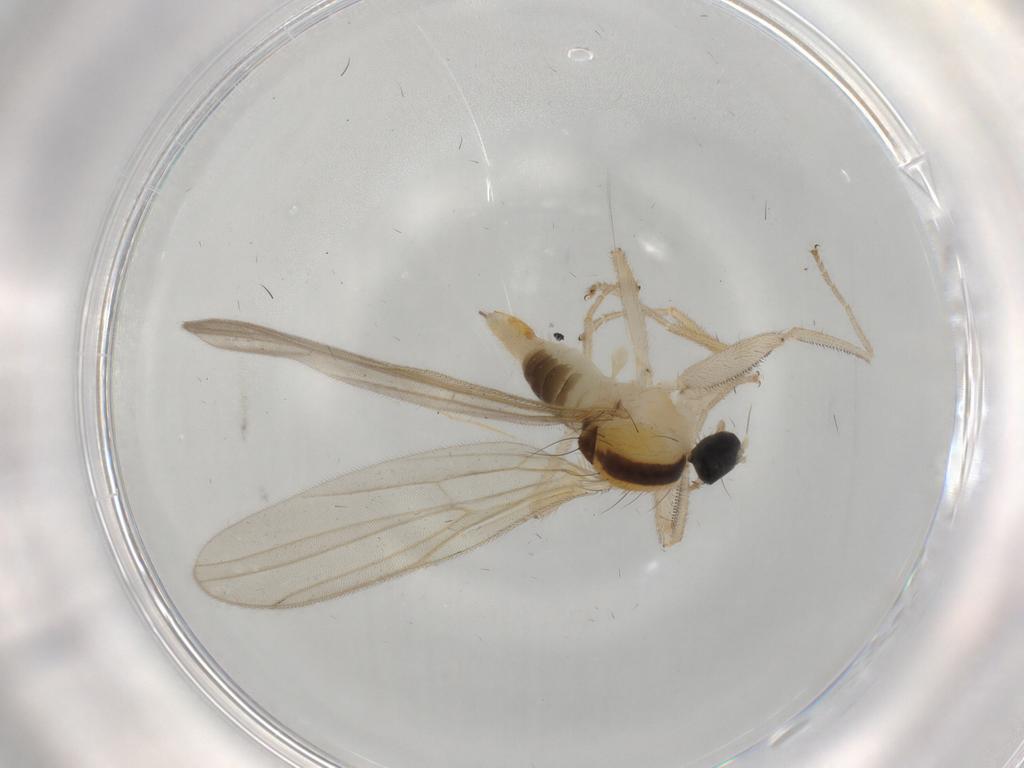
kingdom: Animalia
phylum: Arthropoda
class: Insecta
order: Diptera
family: Hybotidae
